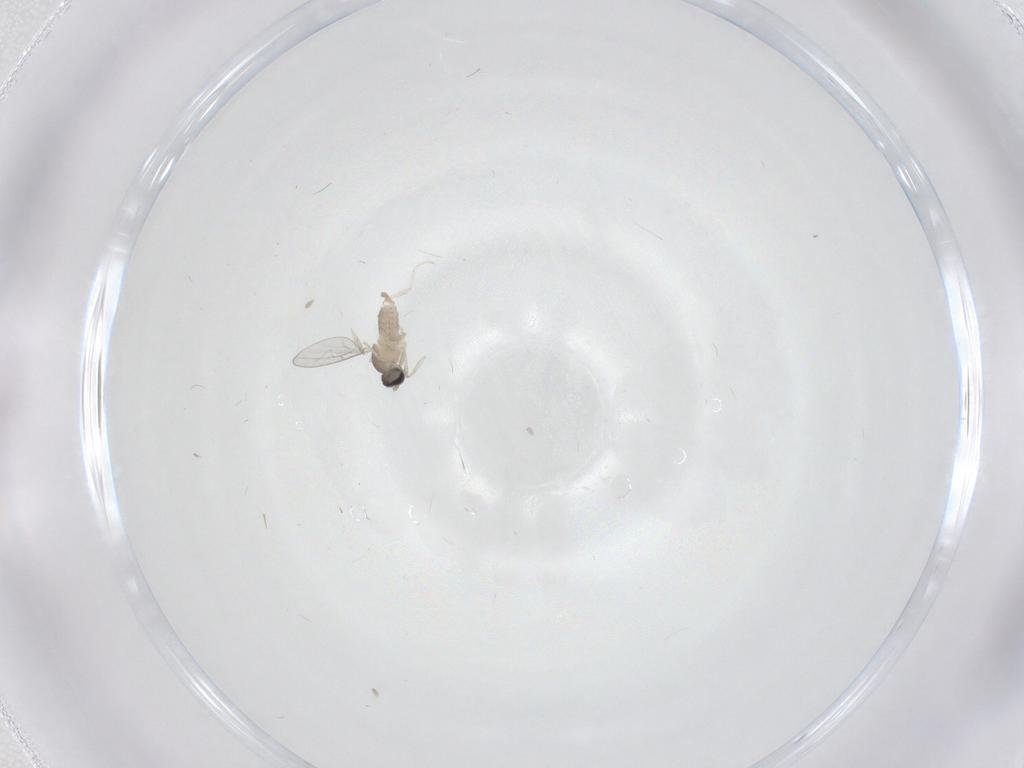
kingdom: Animalia
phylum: Arthropoda
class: Insecta
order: Diptera
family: Cecidomyiidae
